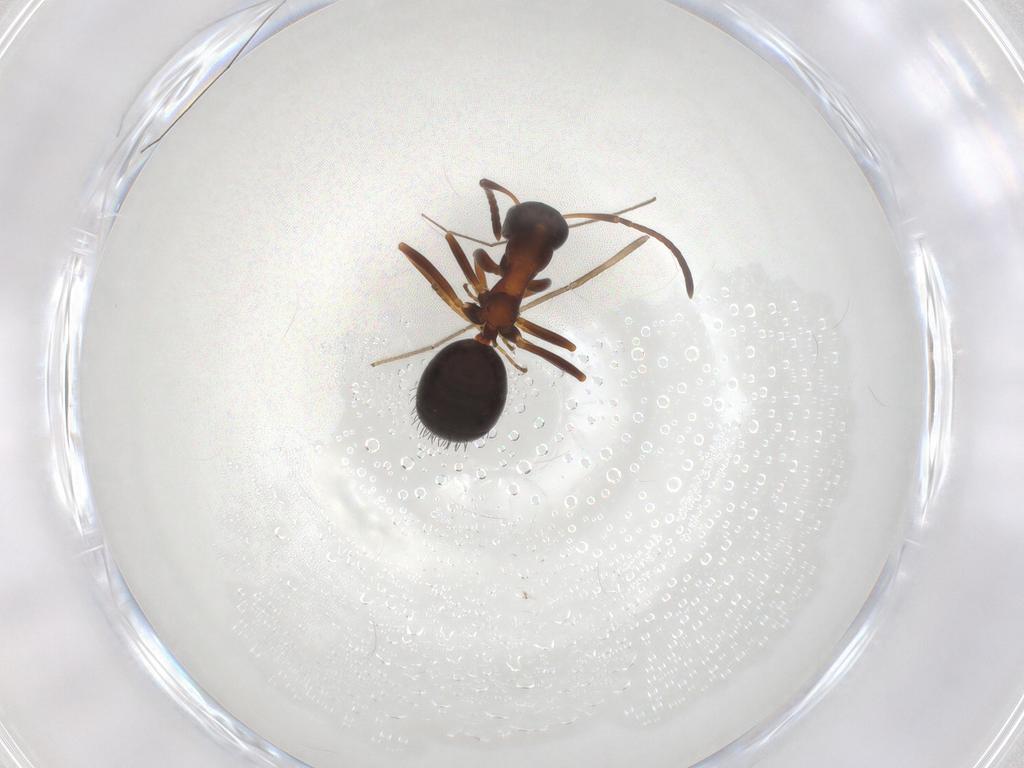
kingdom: Animalia
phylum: Arthropoda
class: Insecta
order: Hymenoptera
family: Formicidae
